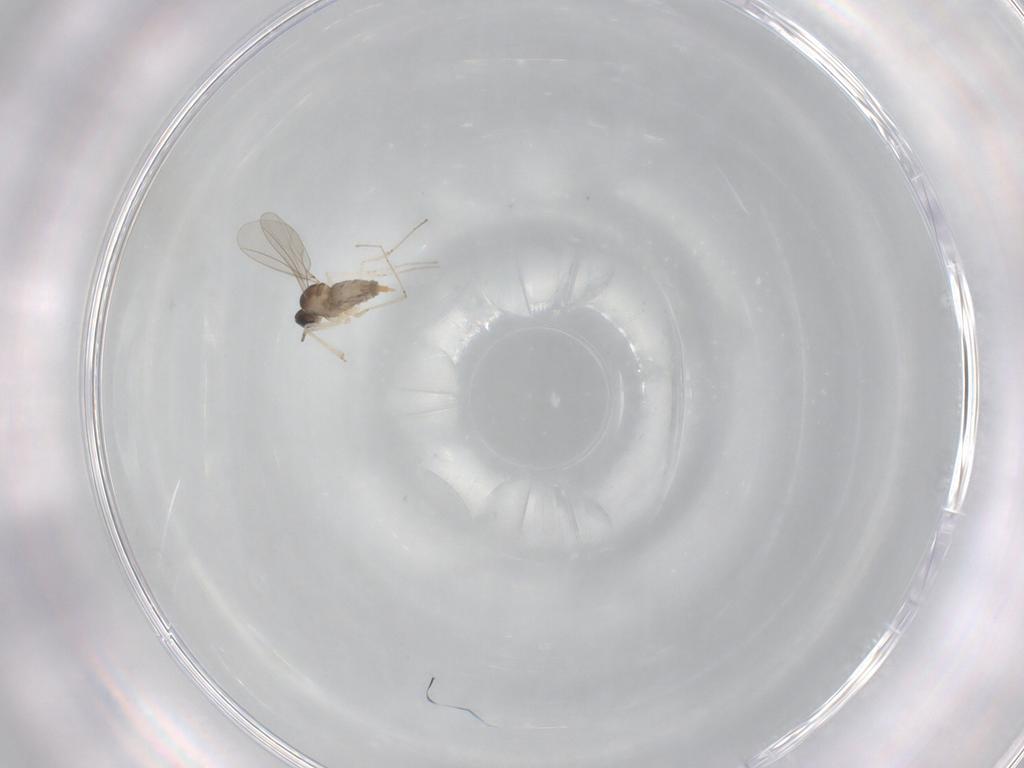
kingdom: Animalia
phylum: Arthropoda
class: Insecta
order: Diptera
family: Chironomidae
